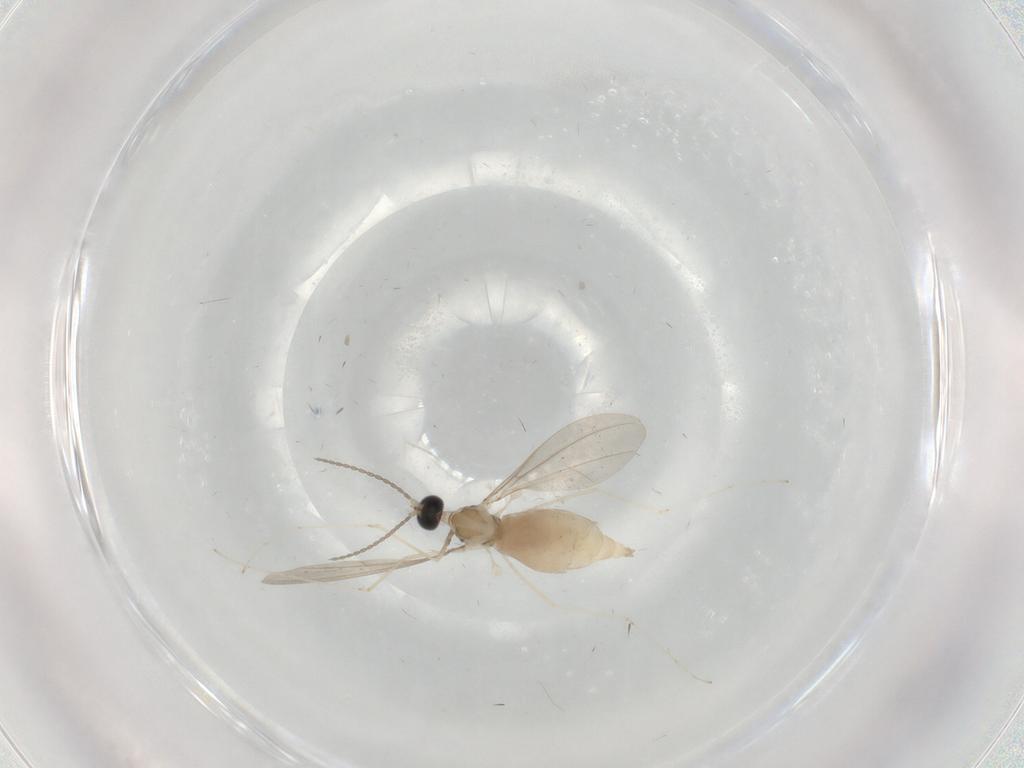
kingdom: Animalia
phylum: Arthropoda
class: Insecta
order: Diptera
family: Cecidomyiidae
